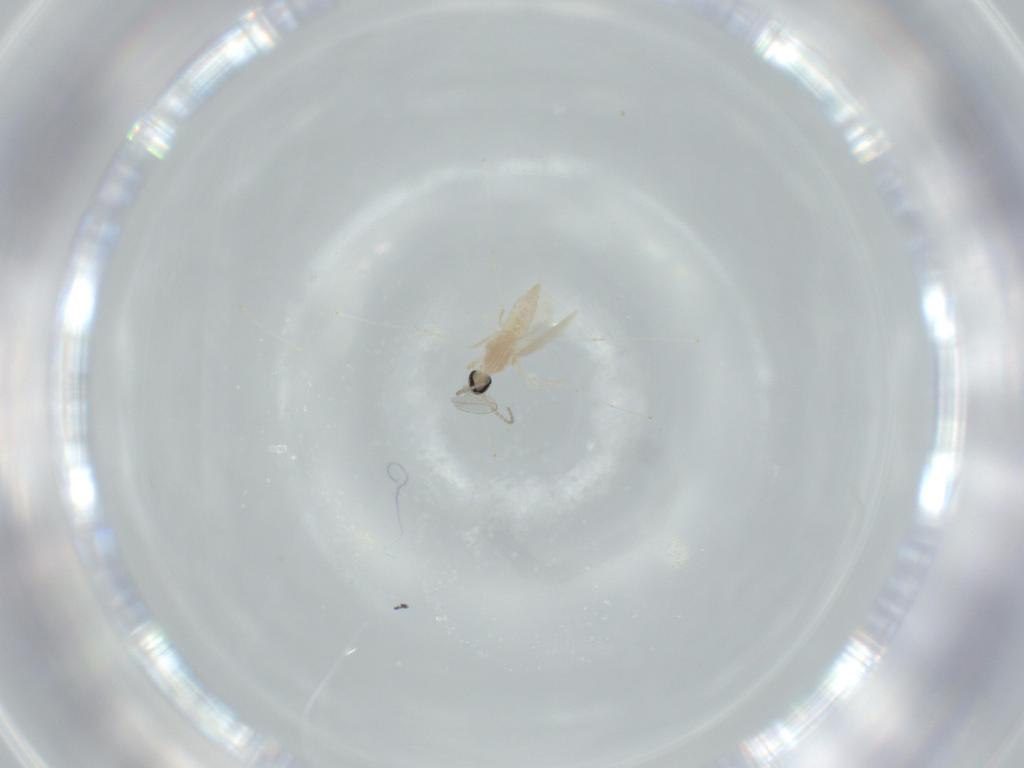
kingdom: Animalia
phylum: Arthropoda
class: Insecta
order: Diptera
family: Cecidomyiidae
